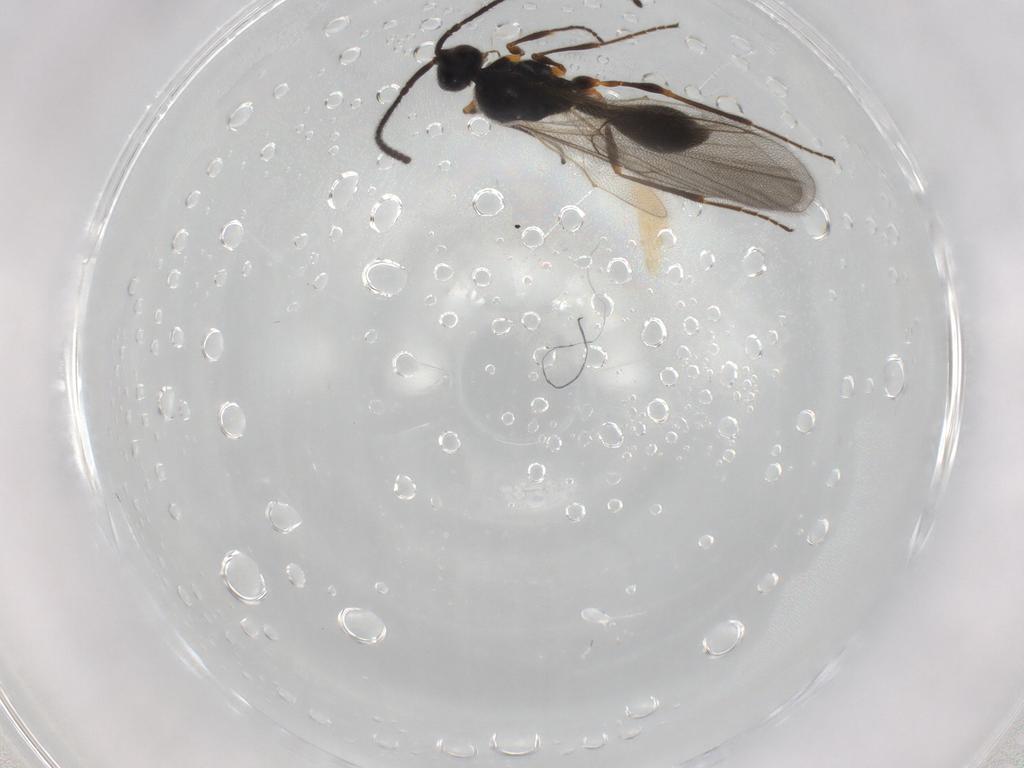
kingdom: Animalia
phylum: Arthropoda
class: Insecta
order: Hymenoptera
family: Diapriidae
